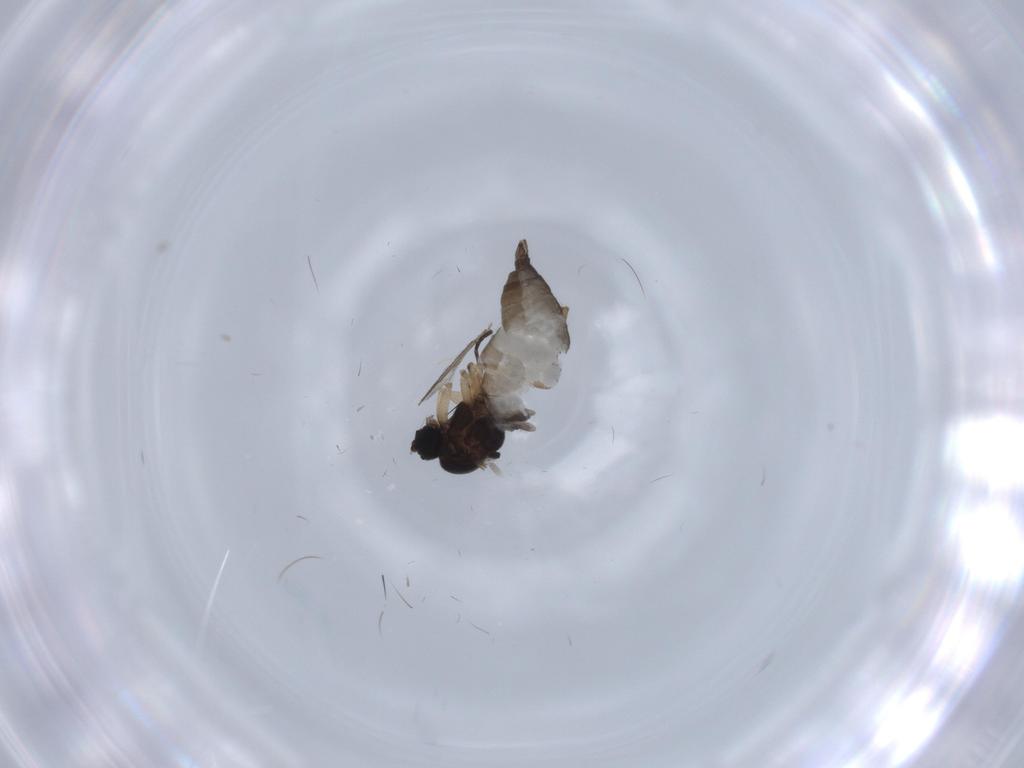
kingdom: Animalia
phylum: Arthropoda
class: Insecta
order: Diptera
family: Sciaridae
